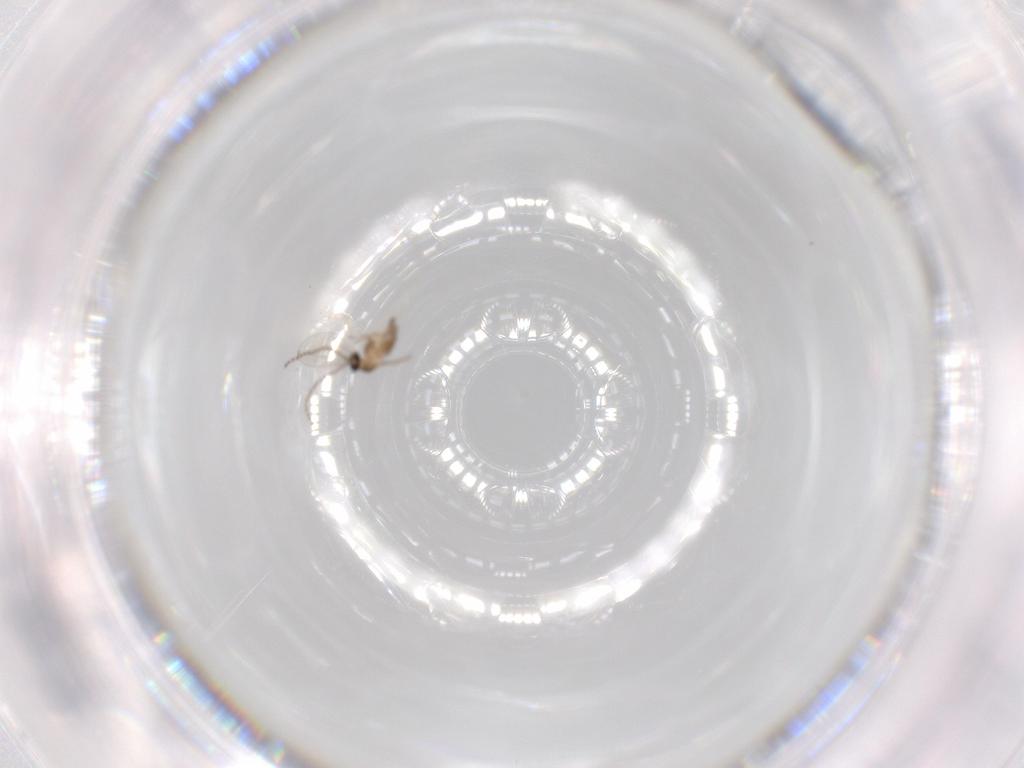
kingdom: Animalia
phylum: Arthropoda
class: Insecta
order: Diptera
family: Cecidomyiidae
